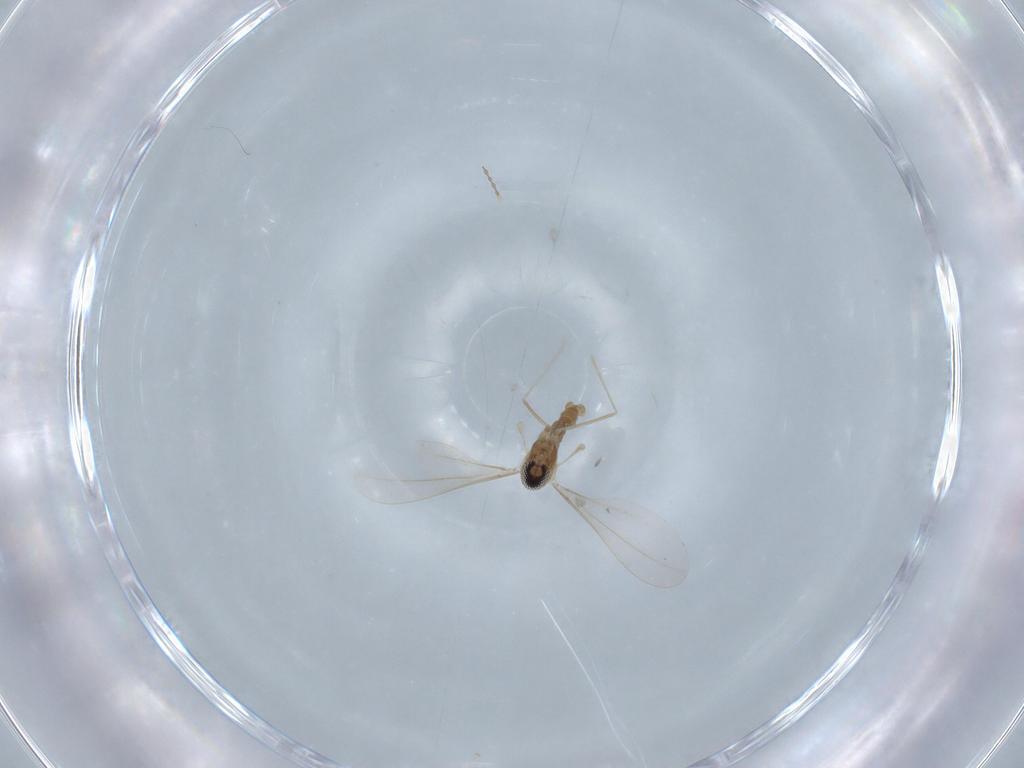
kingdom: Animalia
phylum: Arthropoda
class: Insecta
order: Diptera
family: Cecidomyiidae
